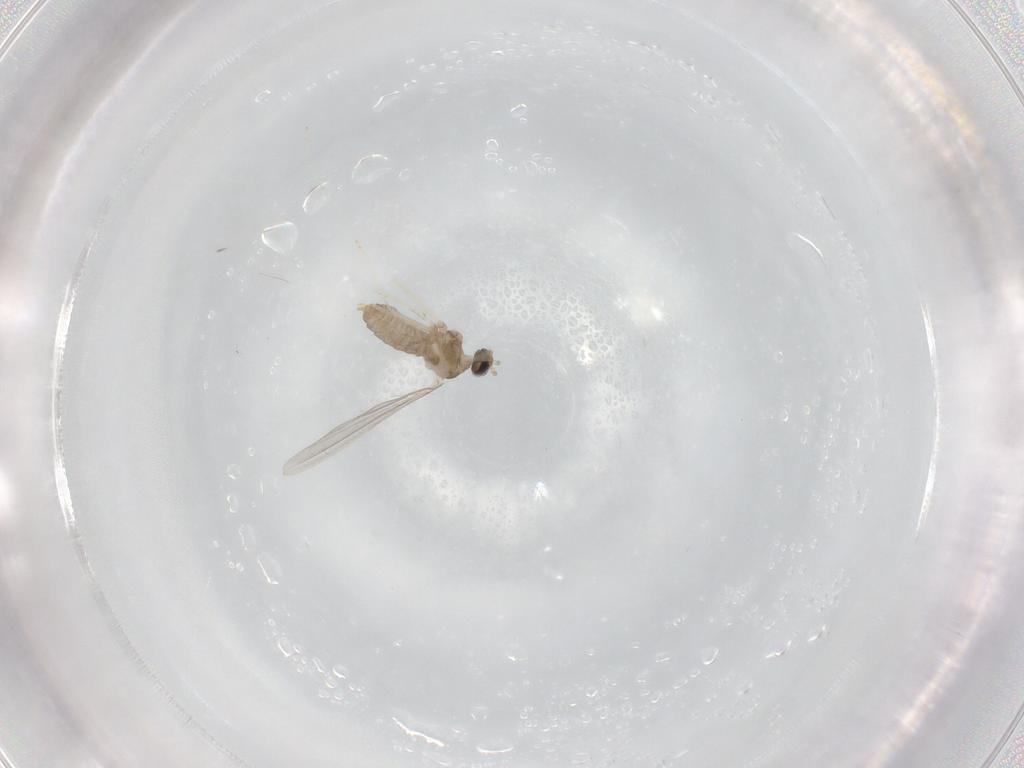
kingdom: Animalia
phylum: Arthropoda
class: Insecta
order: Diptera
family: Cecidomyiidae
